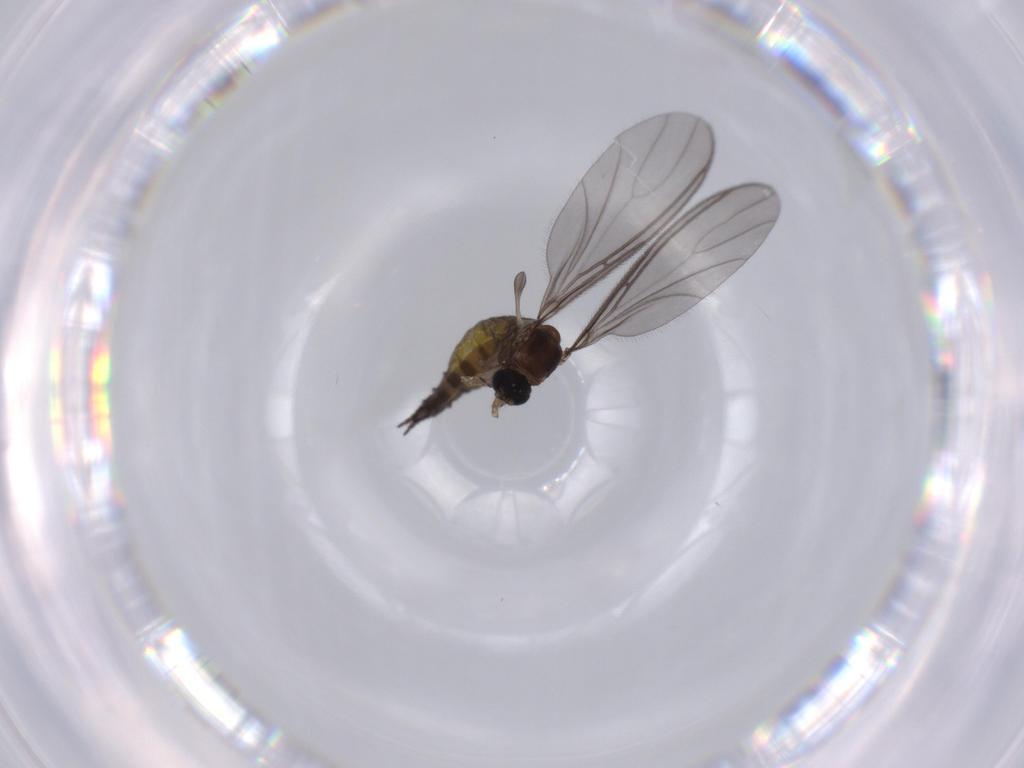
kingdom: Animalia
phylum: Arthropoda
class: Insecta
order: Diptera
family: Sciaridae
